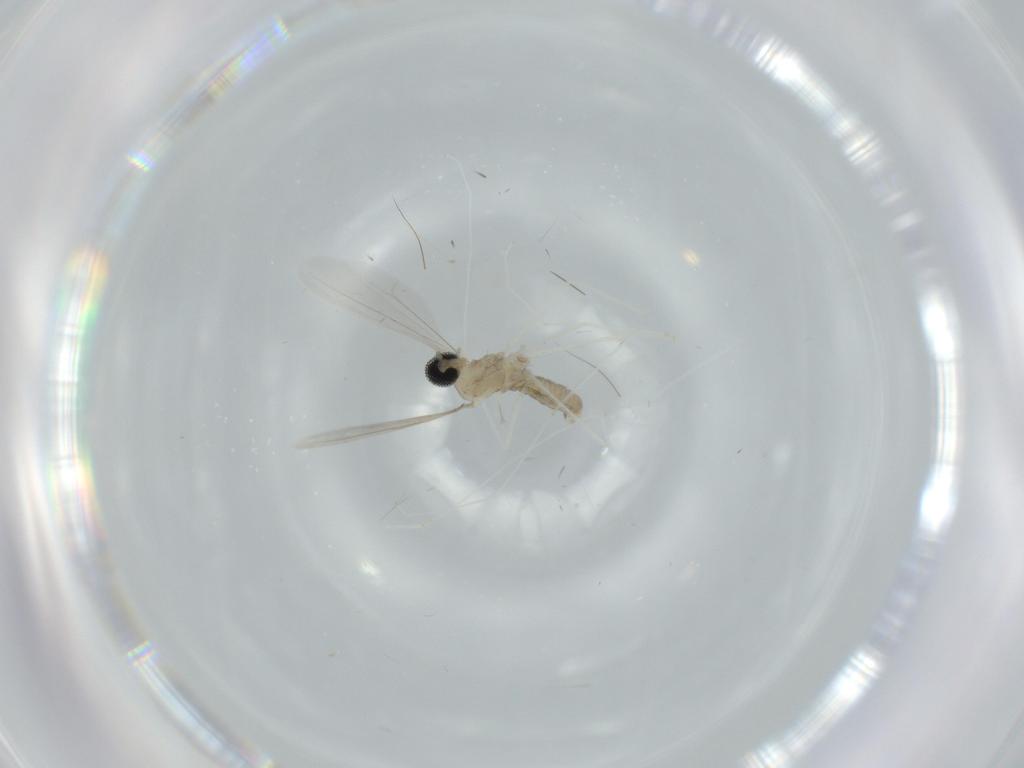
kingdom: Animalia
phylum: Arthropoda
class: Insecta
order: Diptera
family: Cecidomyiidae
